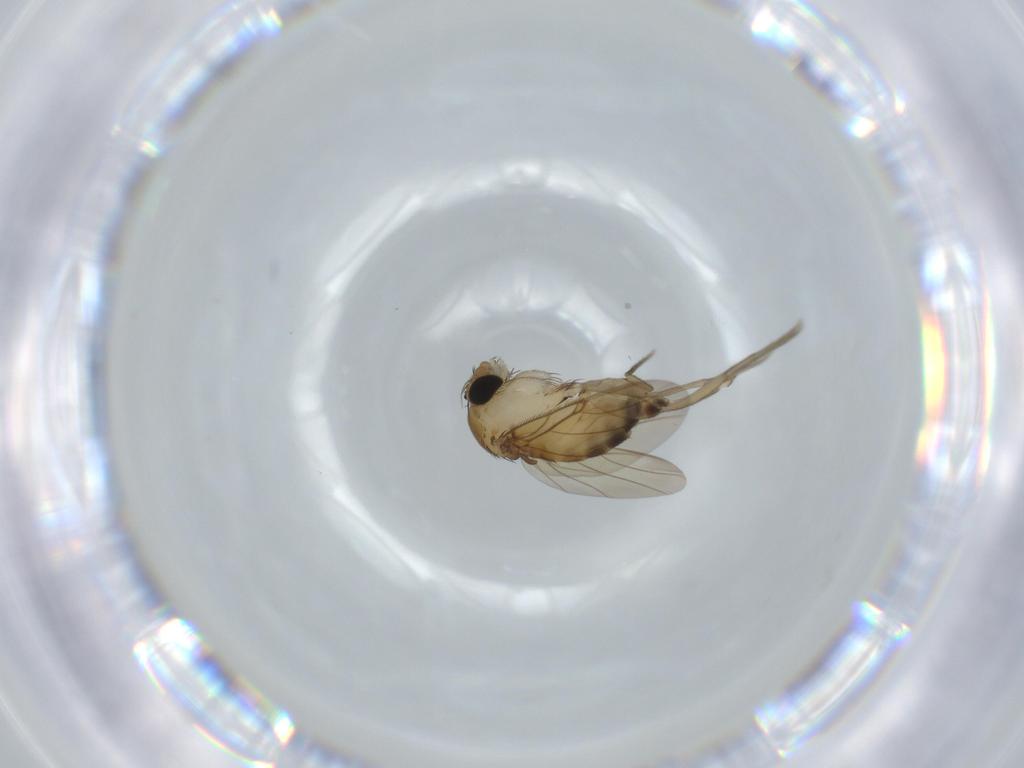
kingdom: Animalia
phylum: Arthropoda
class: Insecta
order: Diptera
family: Phoridae
